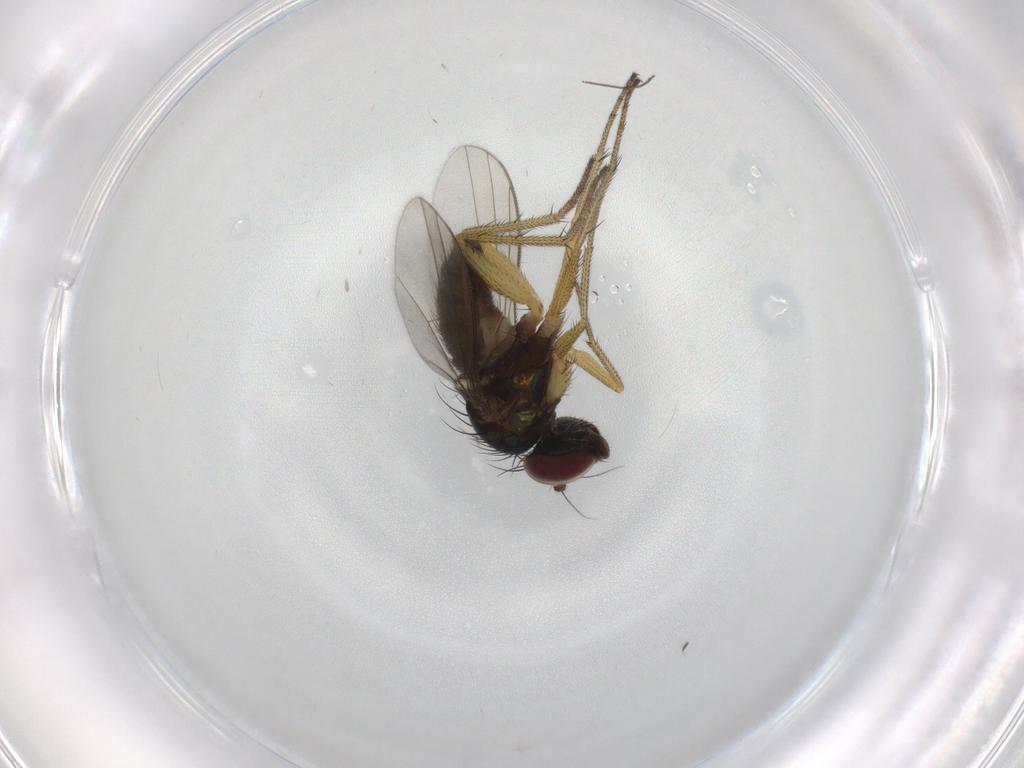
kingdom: Animalia
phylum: Arthropoda
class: Insecta
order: Diptera
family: Dolichopodidae
